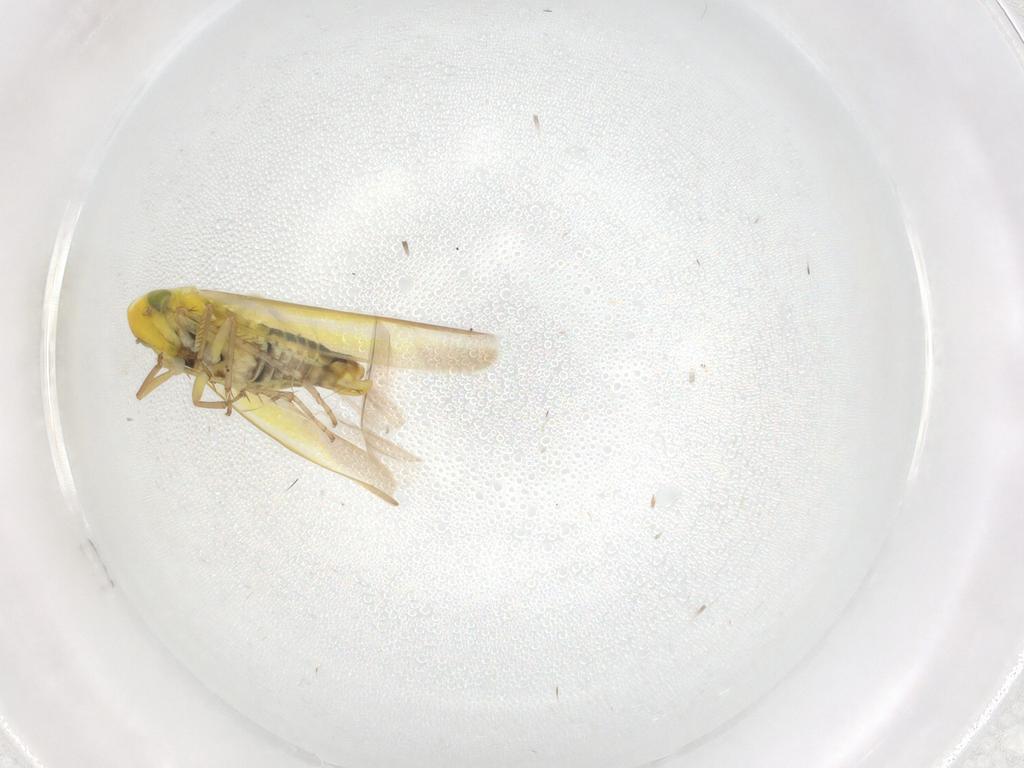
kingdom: Animalia
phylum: Arthropoda
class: Insecta
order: Hemiptera
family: Cicadellidae
